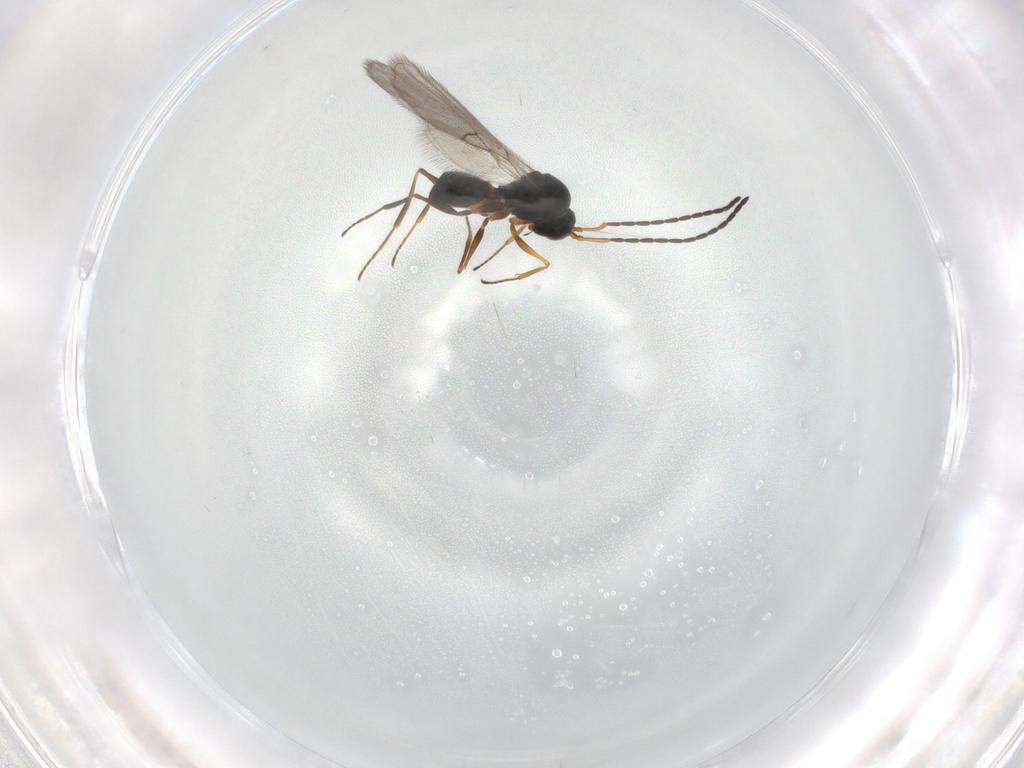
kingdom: Animalia
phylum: Arthropoda
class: Insecta
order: Hymenoptera
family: Figitidae
